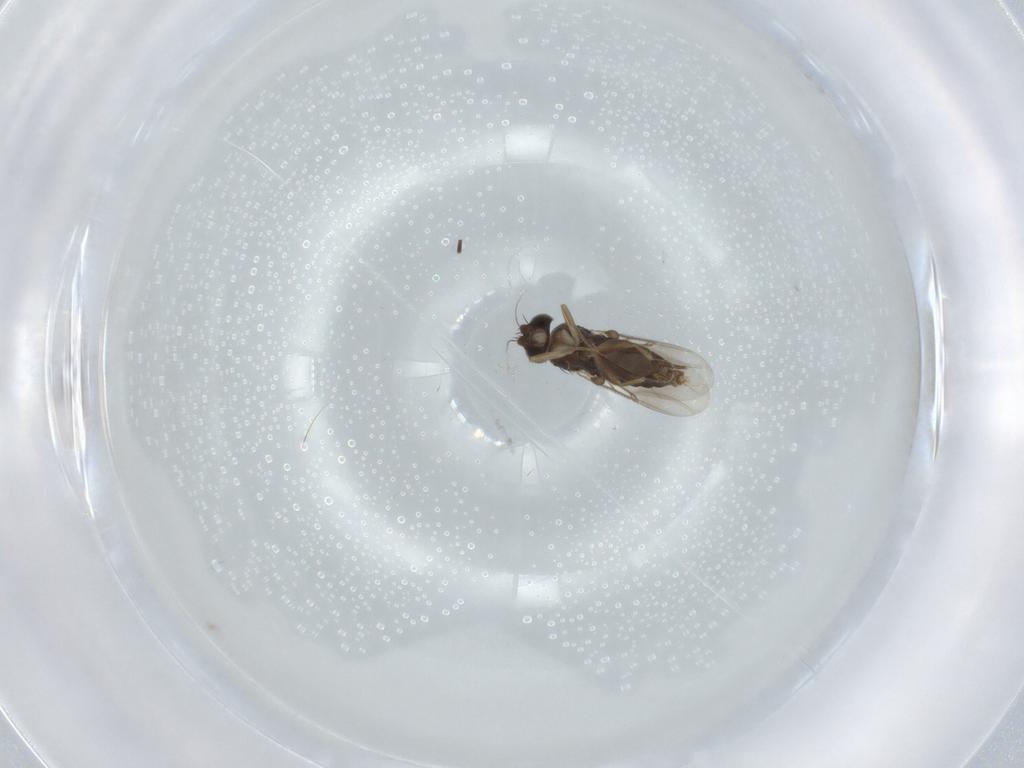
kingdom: Animalia
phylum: Arthropoda
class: Insecta
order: Diptera
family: Phoridae
